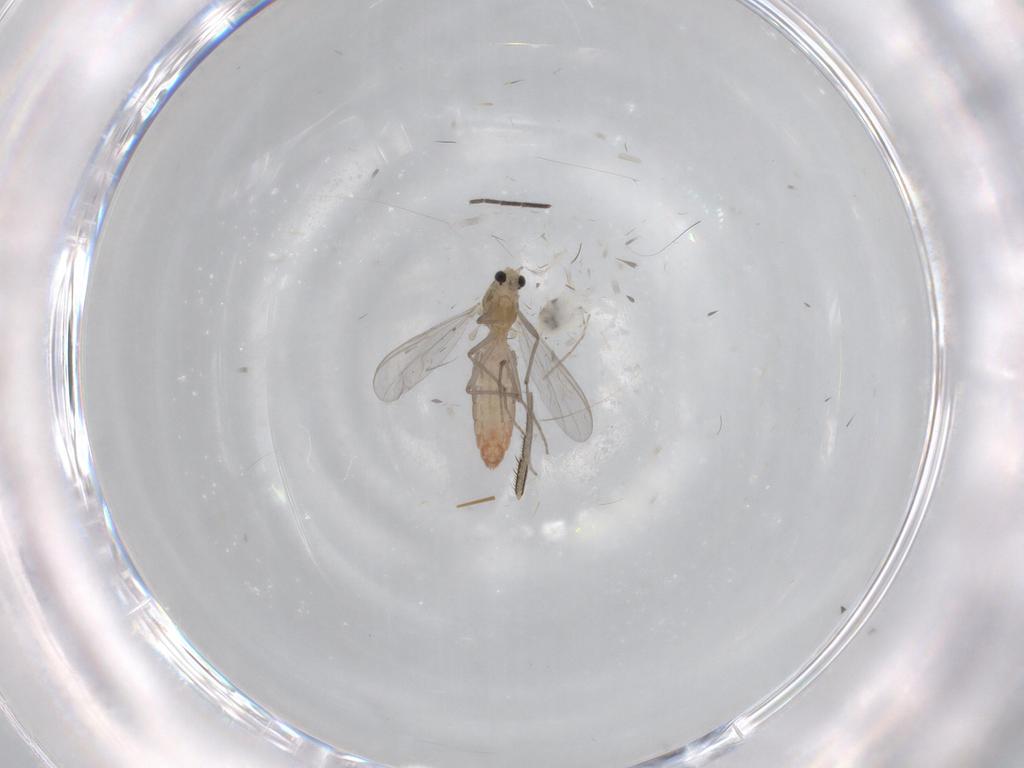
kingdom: Animalia
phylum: Arthropoda
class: Insecta
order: Diptera
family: Chironomidae
